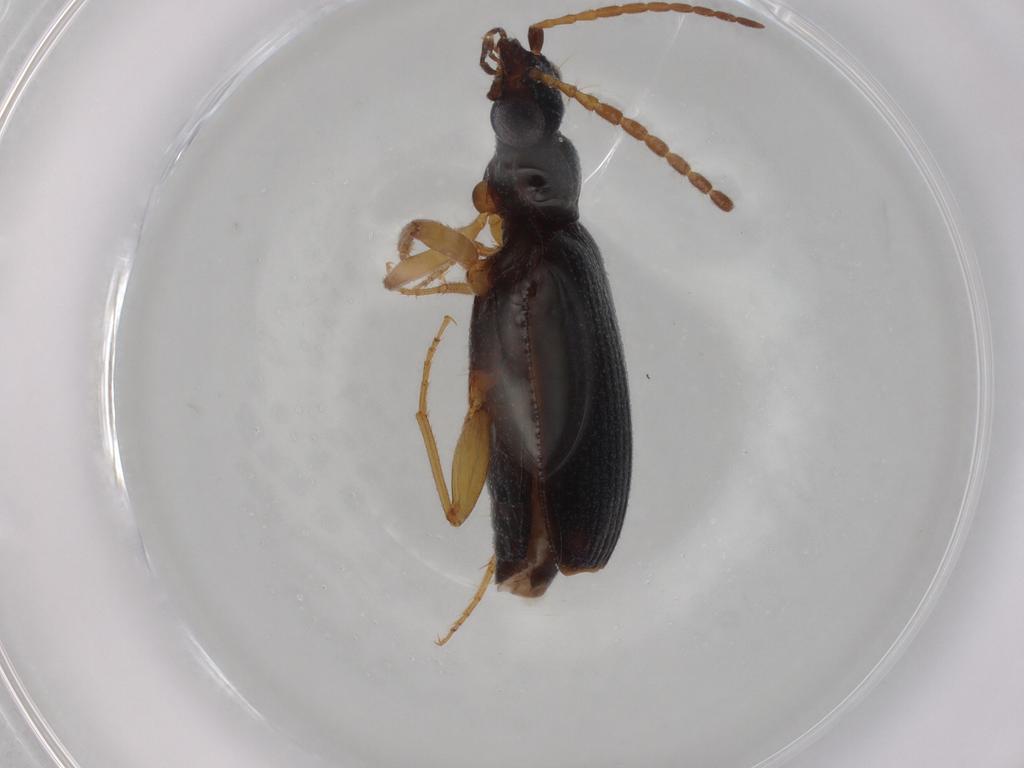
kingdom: Animalia
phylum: Arthropoda
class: Insecta
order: Coleoptera
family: Carabidae
